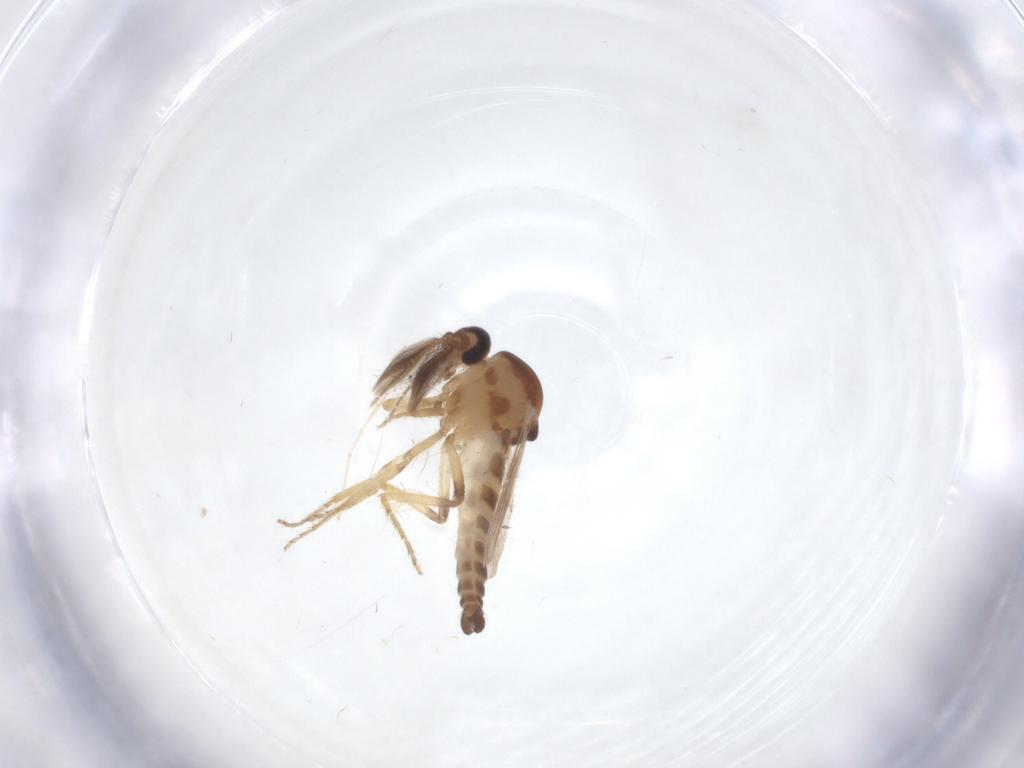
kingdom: Animalia
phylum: Arthropoda
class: Insecta
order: Diptera
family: Ceratopogonidae
